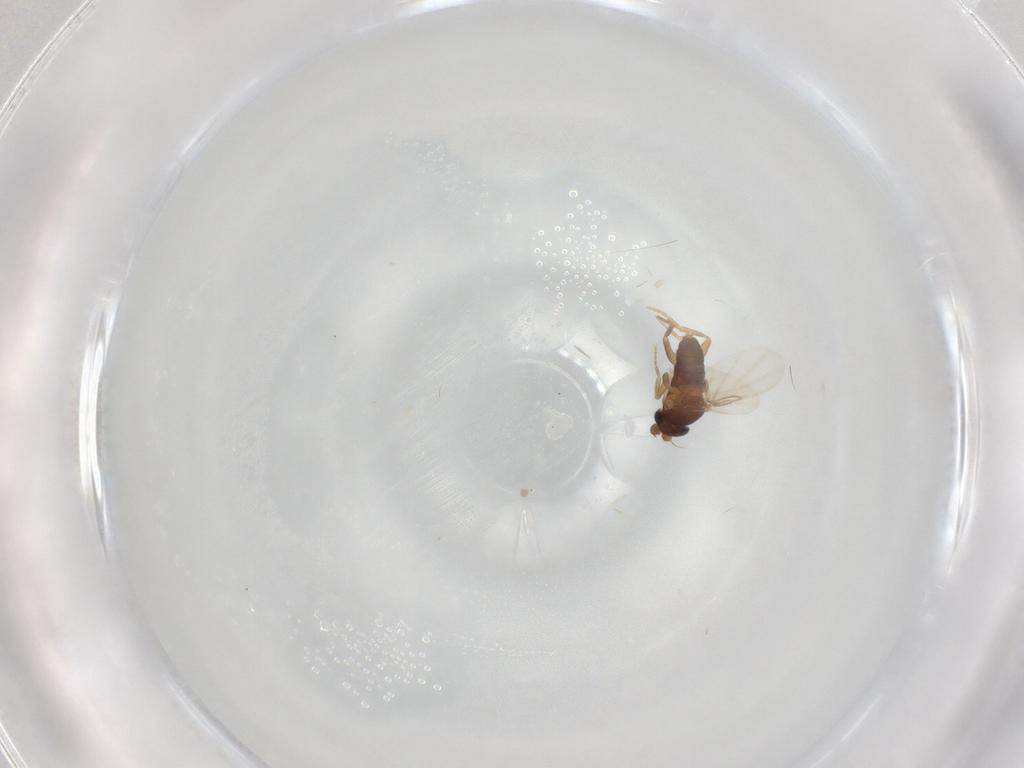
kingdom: Animalia
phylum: Arthropoda
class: Insecta
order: Diptera
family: Phoridae
